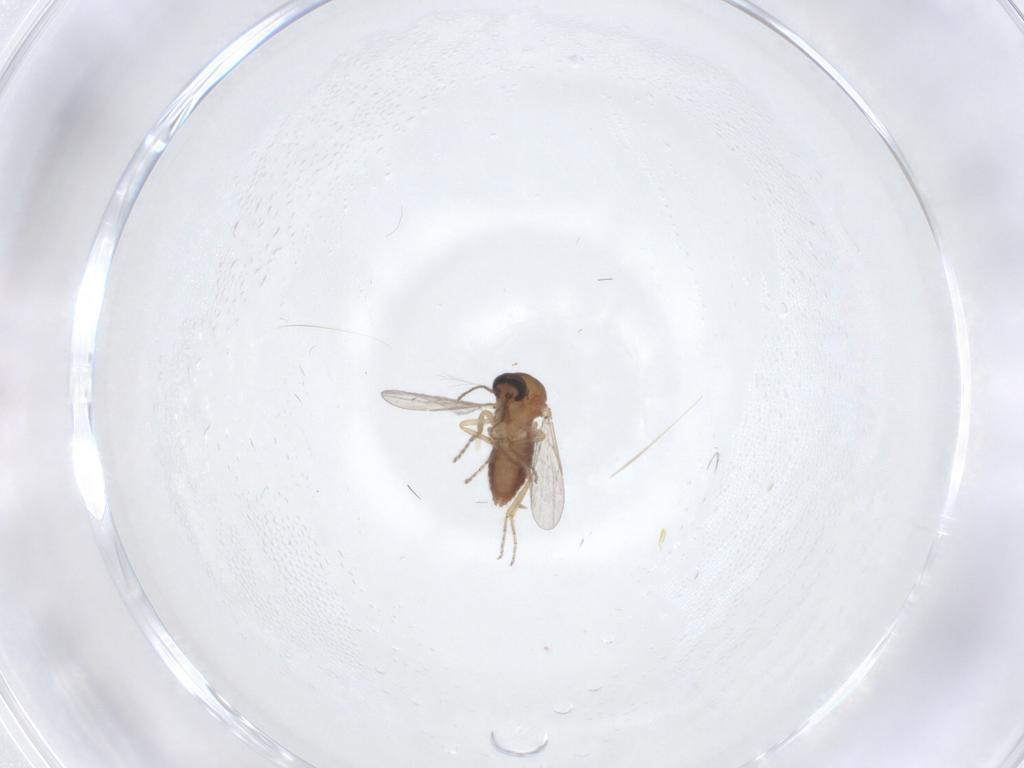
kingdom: Animalia
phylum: Arthropoda
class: Insecta
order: Diptera
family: Ceratopogonidae
